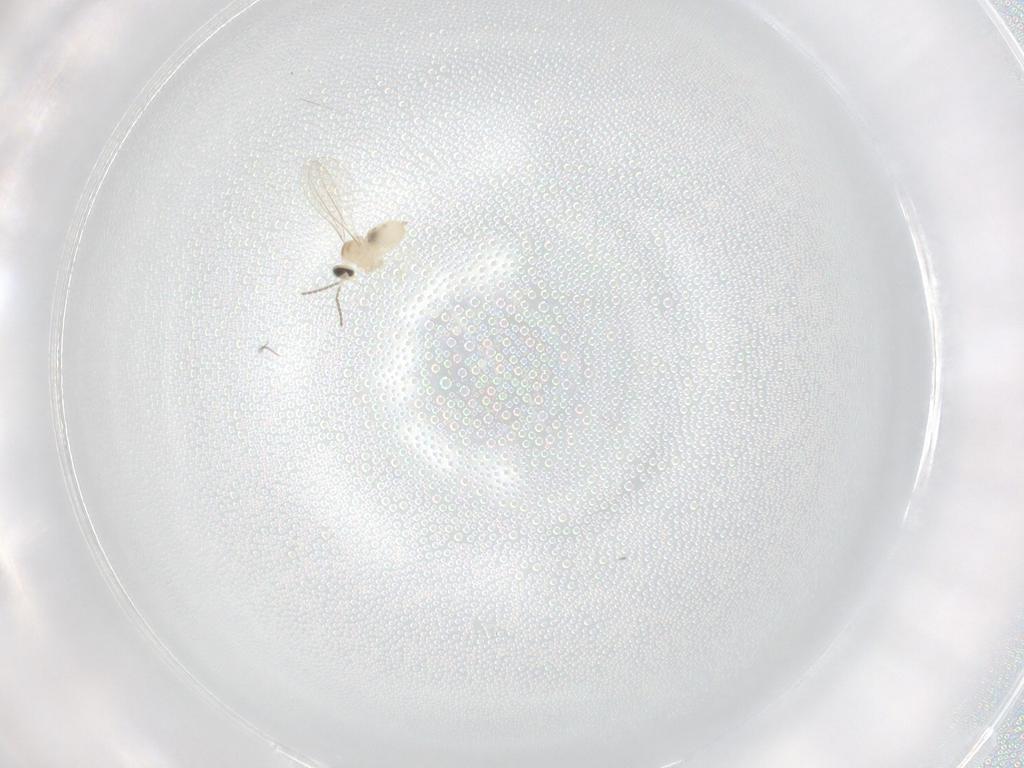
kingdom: Animalia
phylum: Arthropoda
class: Insecta
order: Diptera
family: Cecidomyiidae
